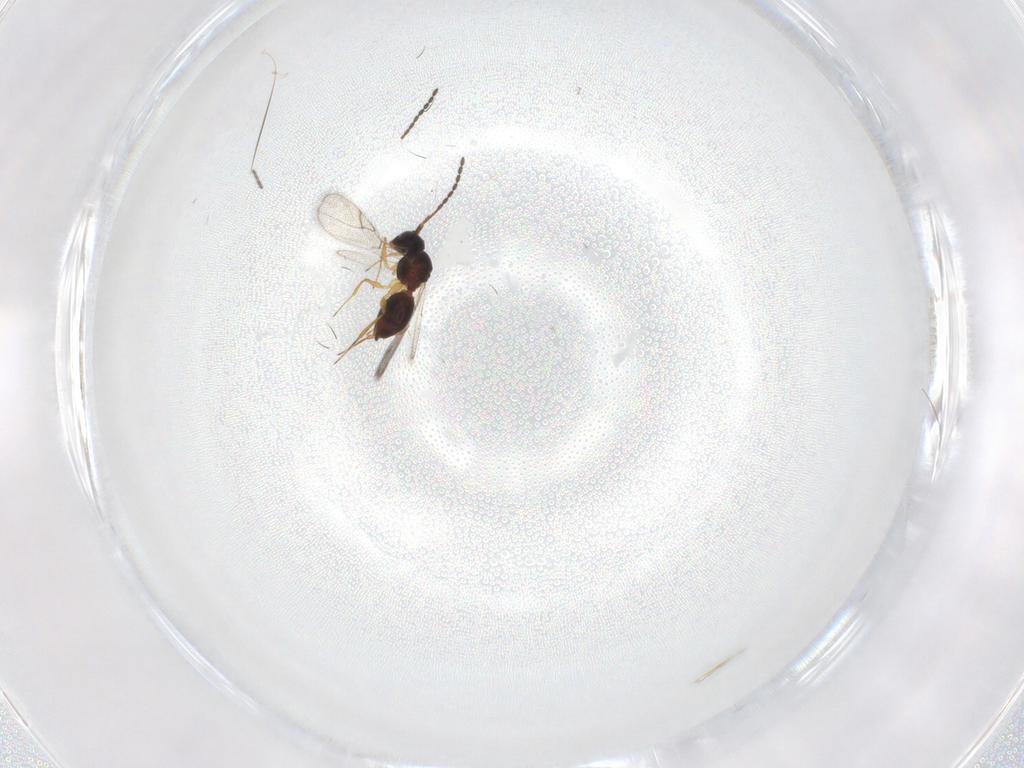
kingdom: Animalia
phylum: Arthropoda
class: Insecta
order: Hymenoptera
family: Figitidae
